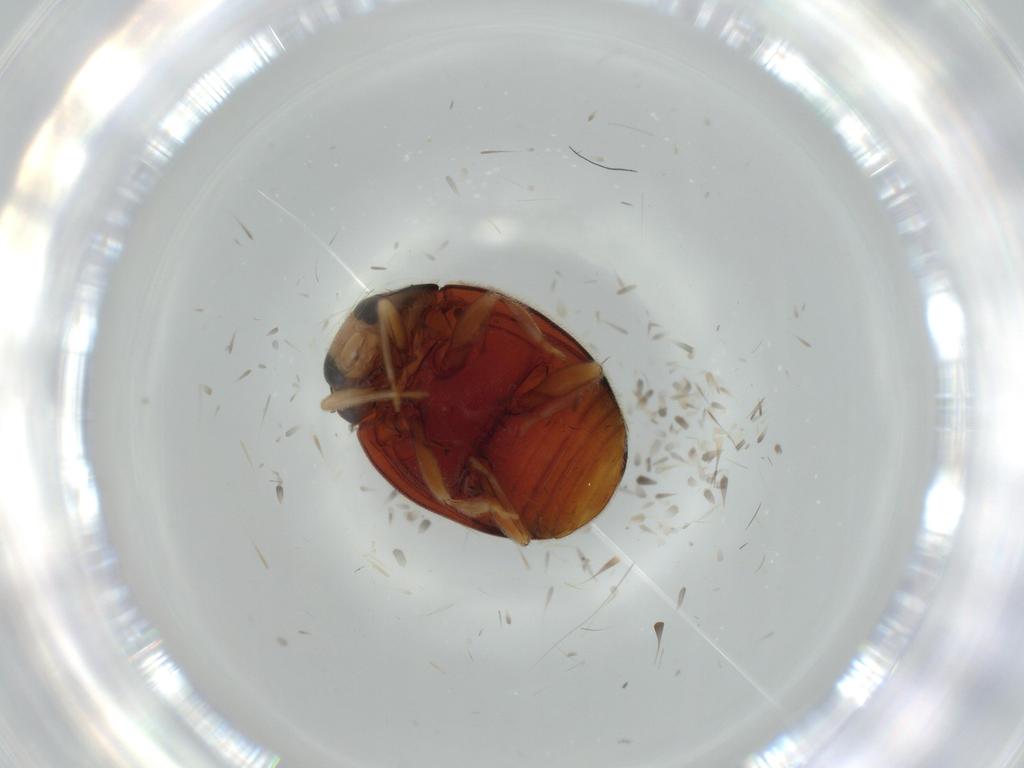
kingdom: Animalia
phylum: Arthropoda
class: Insecta
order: Coleoptera
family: Coccinellidae
